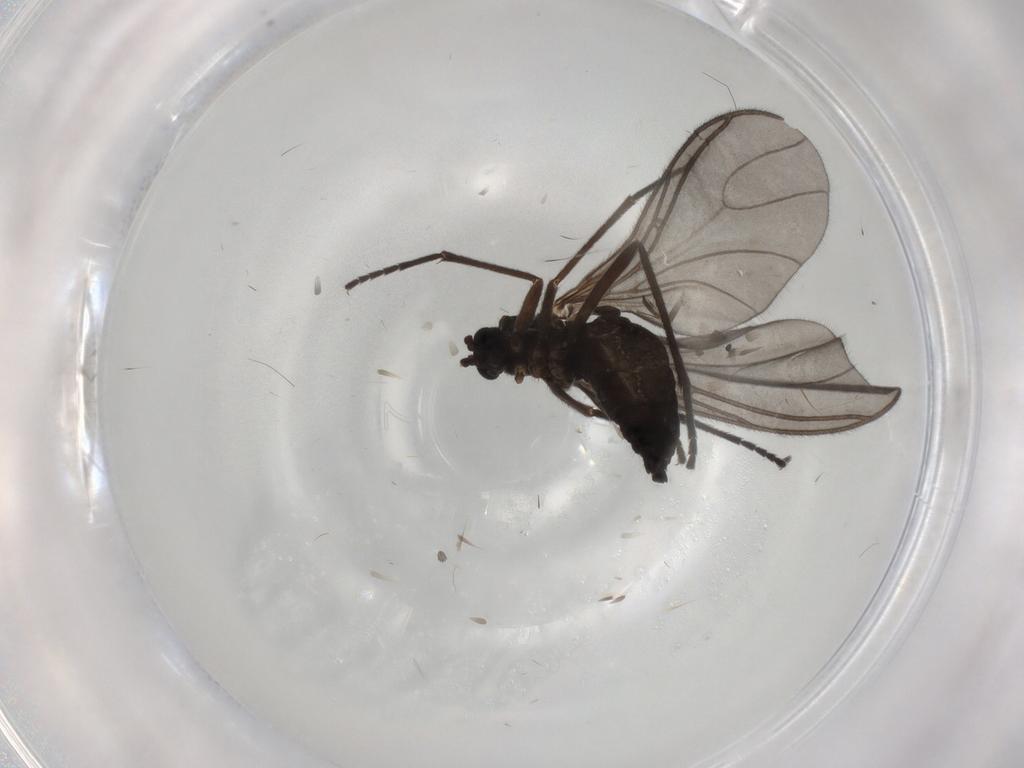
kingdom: Animalia
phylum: Arthropoda
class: Insecta
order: Diptera
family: Sciaridae
